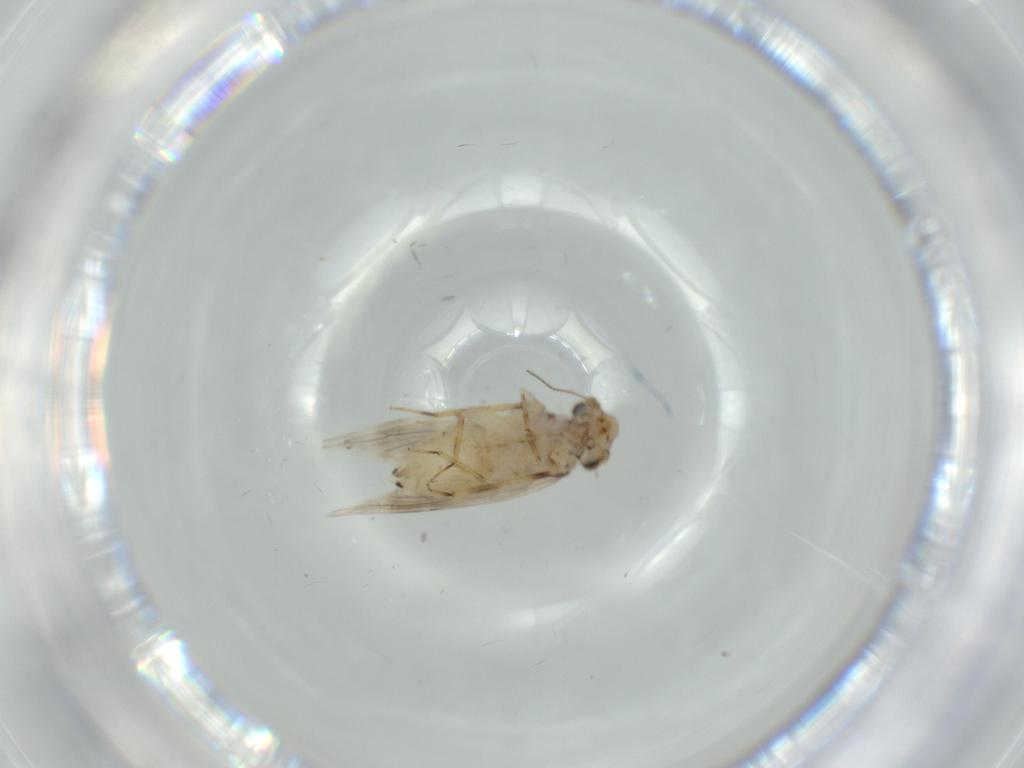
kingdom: Animalia
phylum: Arthropoda
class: Insecta
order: Psocodea
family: Lepidopsocidae
